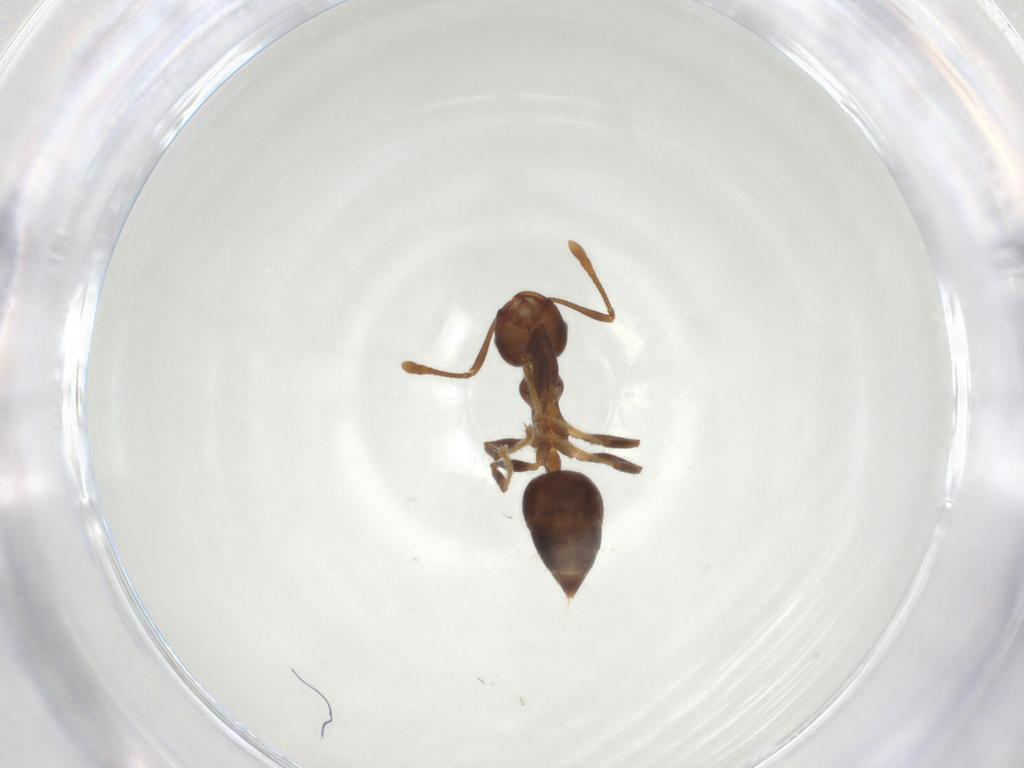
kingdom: Animalia
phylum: Arthropoda
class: Insecta
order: Hymenoptera
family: Formicidae
